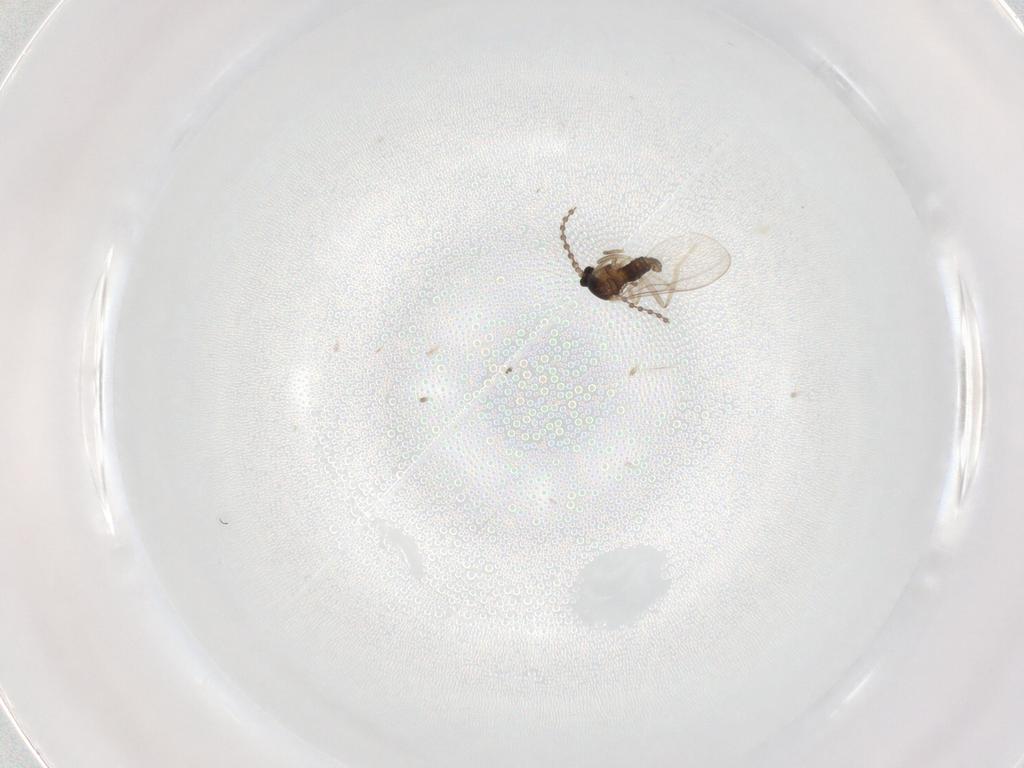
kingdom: Animalia
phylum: Arthropoda
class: Insecta
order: Diptera
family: Cecidomyiidae
